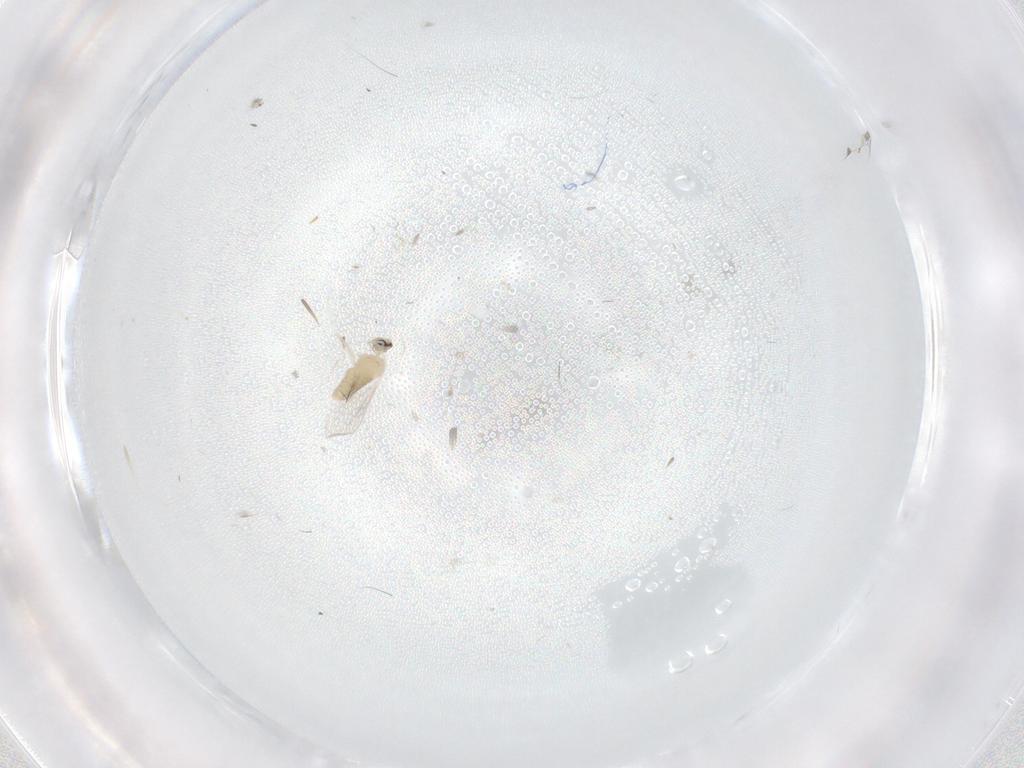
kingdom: Animalia
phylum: Arthropoda
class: Insecta
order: Diptera
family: Cecidomyiidae
